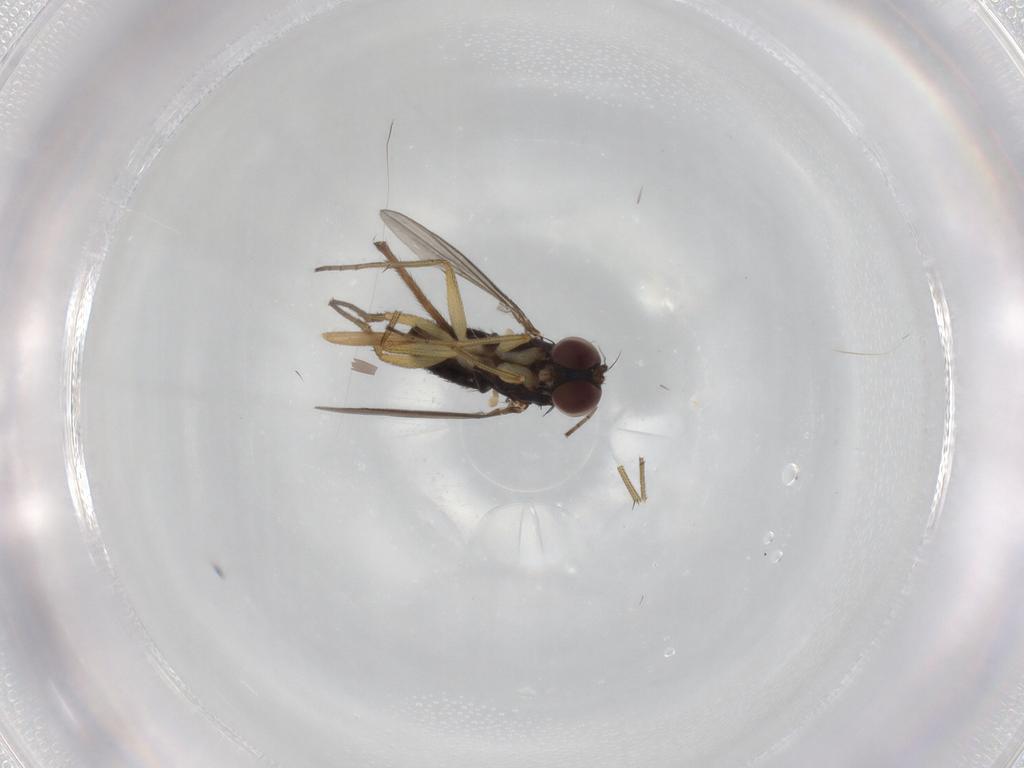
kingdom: Animalia
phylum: Arthropoda
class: Insecta
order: Diptera
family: Dolichopodidae
